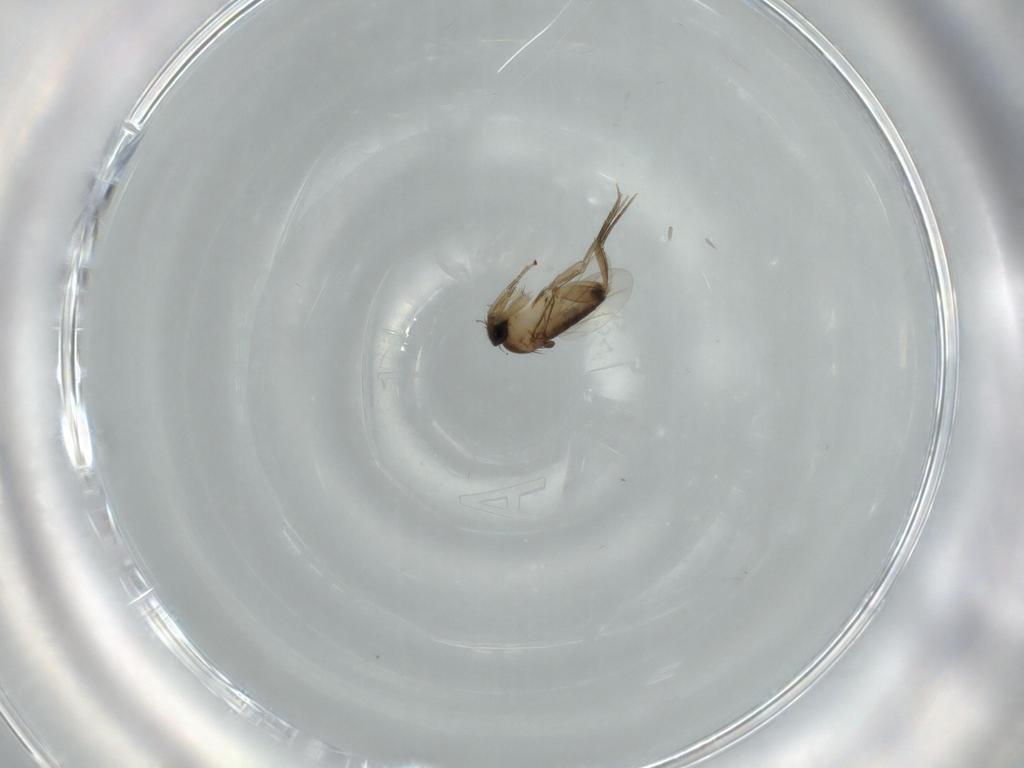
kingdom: Animalia
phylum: Arthropoda
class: Insecta
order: Diptera
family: Phoridae
